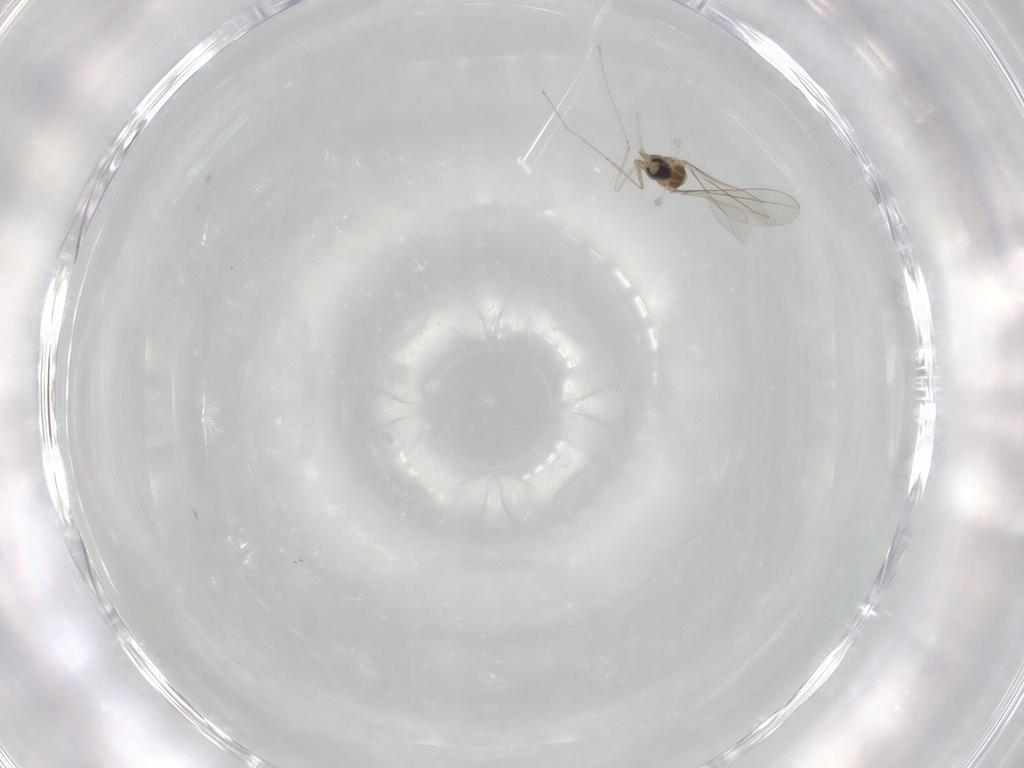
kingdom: Animalia
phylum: Arthropoda
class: Insecta
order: Diptera
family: Cecidomyiidae
